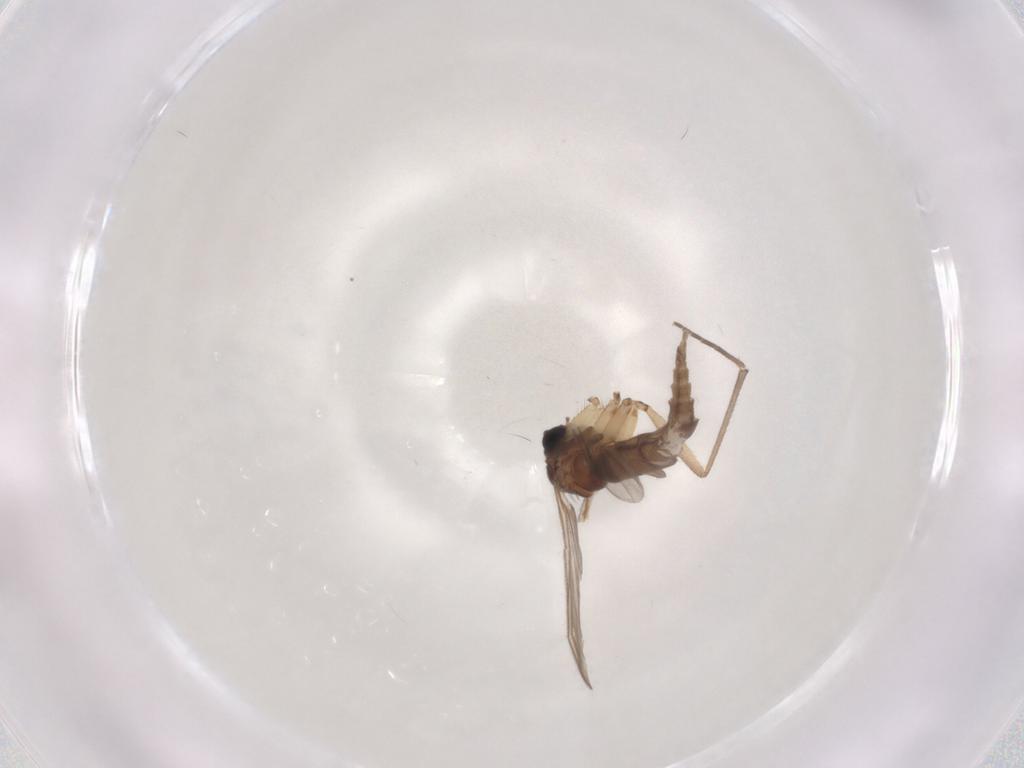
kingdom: Animalia
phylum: Arthropoda
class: Insecta
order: Diptera
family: Sciaridae
